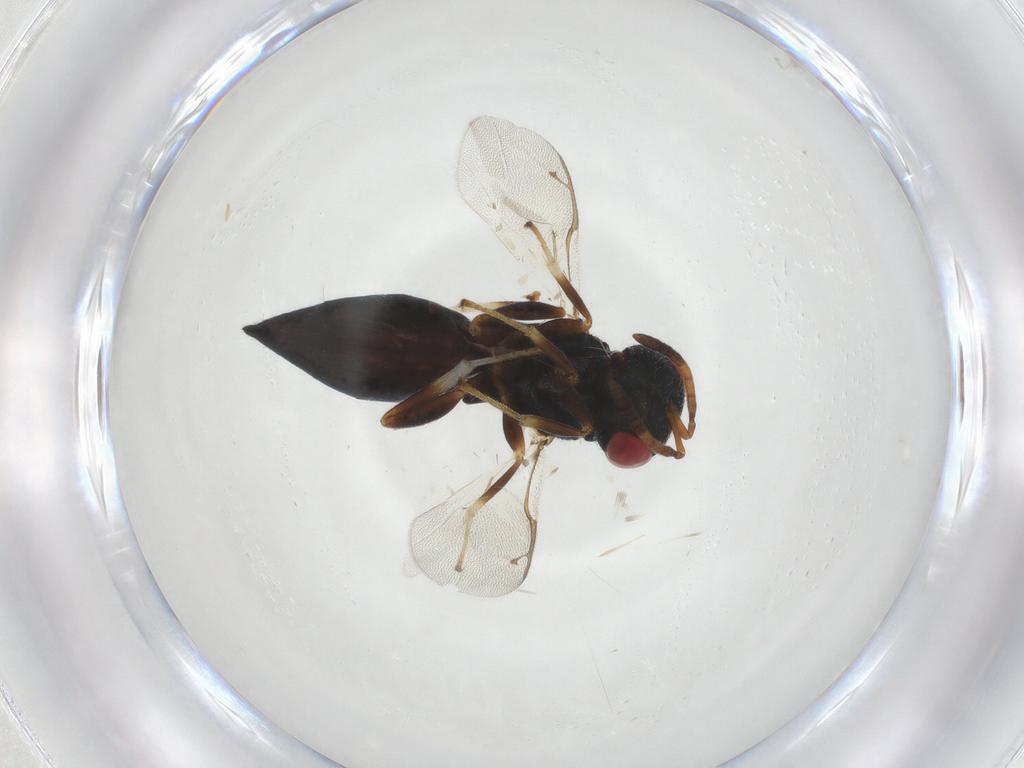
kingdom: Animalia
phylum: Arthropoda
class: Insecta
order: Hymenoptera
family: Pteromalidae
